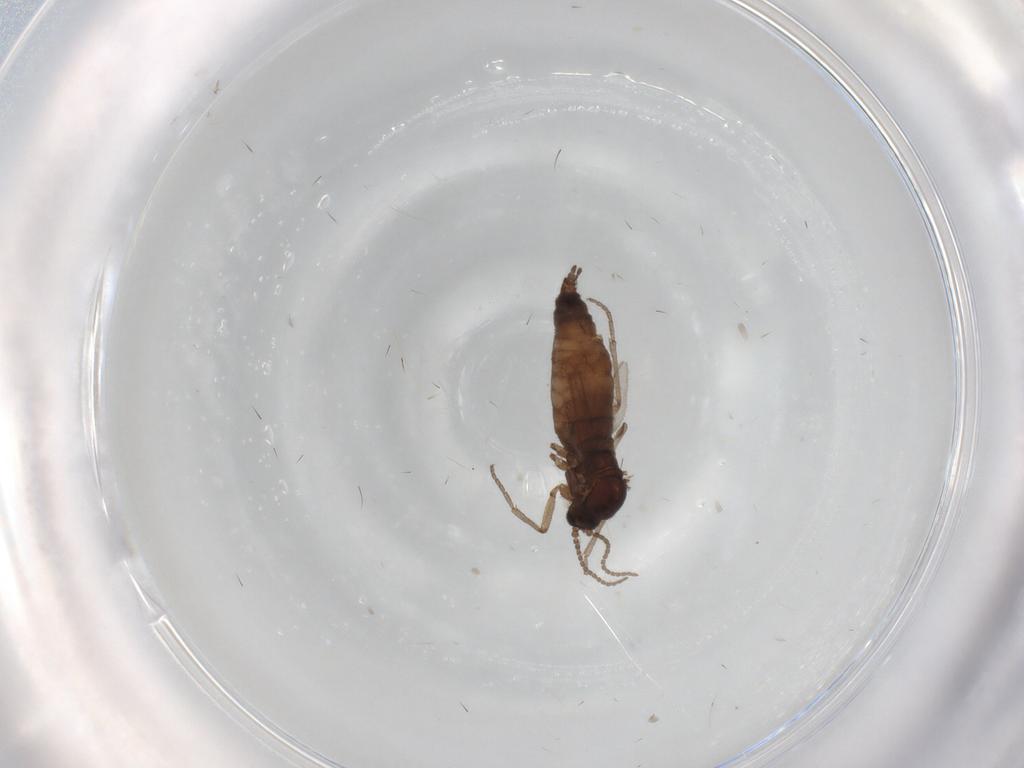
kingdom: Animalia
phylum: Arthropoda
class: Insecta
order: Diptera
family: Sciaridae
